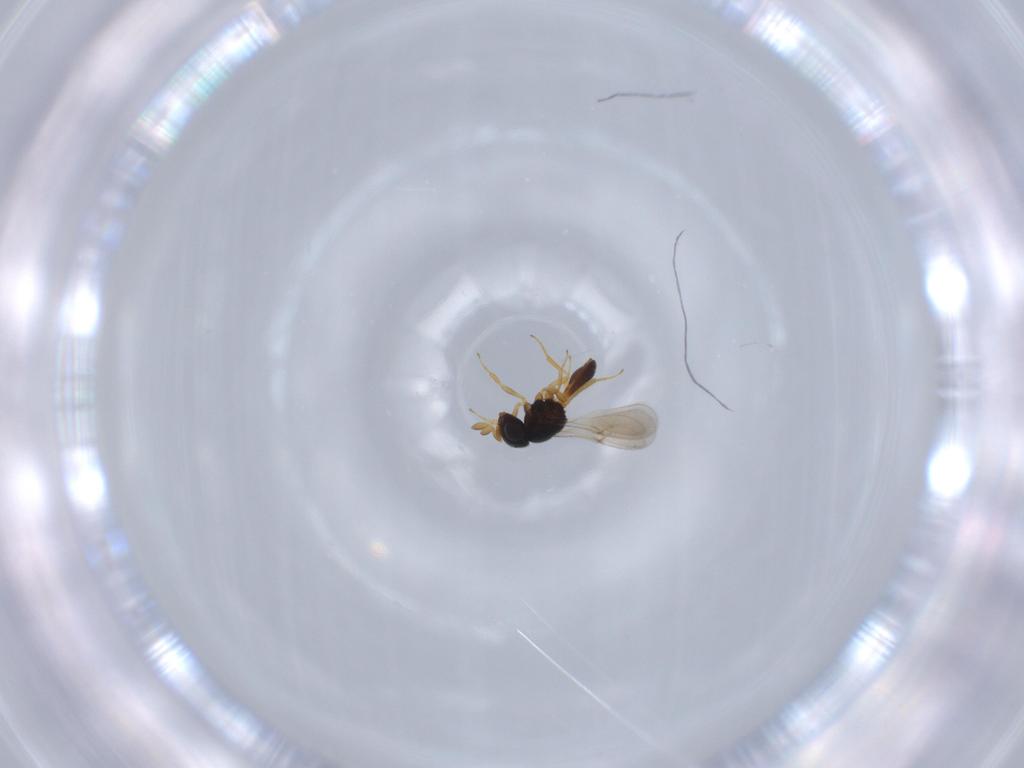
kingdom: Animalia
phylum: Arthropoda
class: Insecta
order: Hymenoptera
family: Scelionidae
